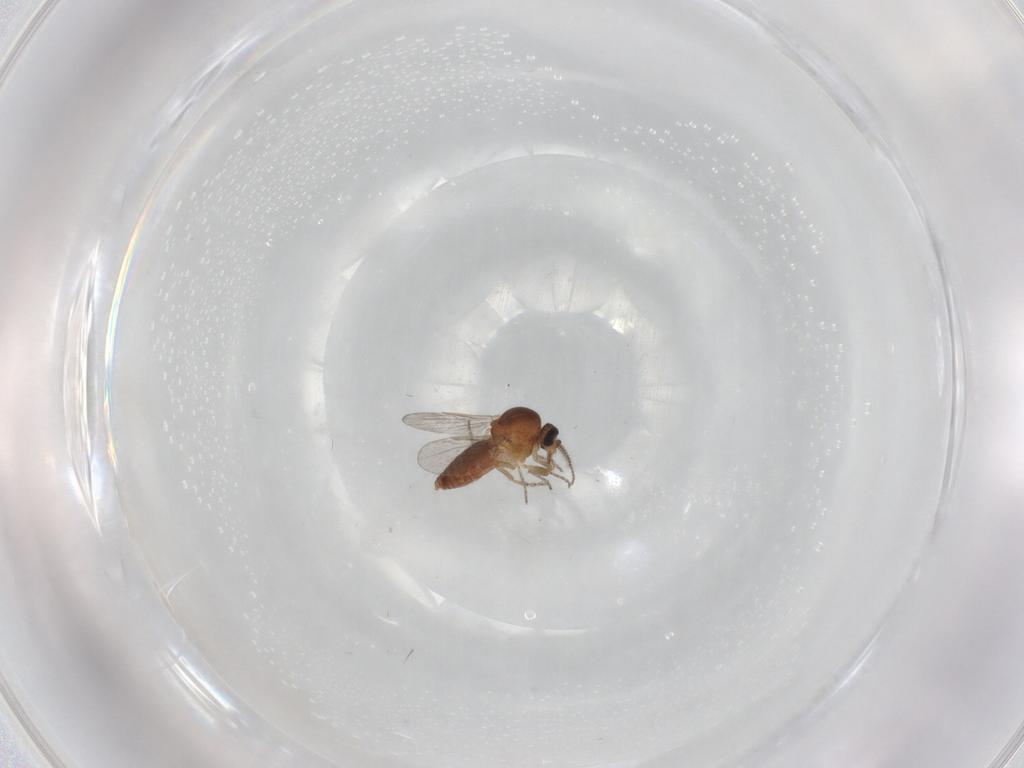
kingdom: Animalia
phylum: Arthropoda
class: Insecta
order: Diptera
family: Ceratopogonidae
